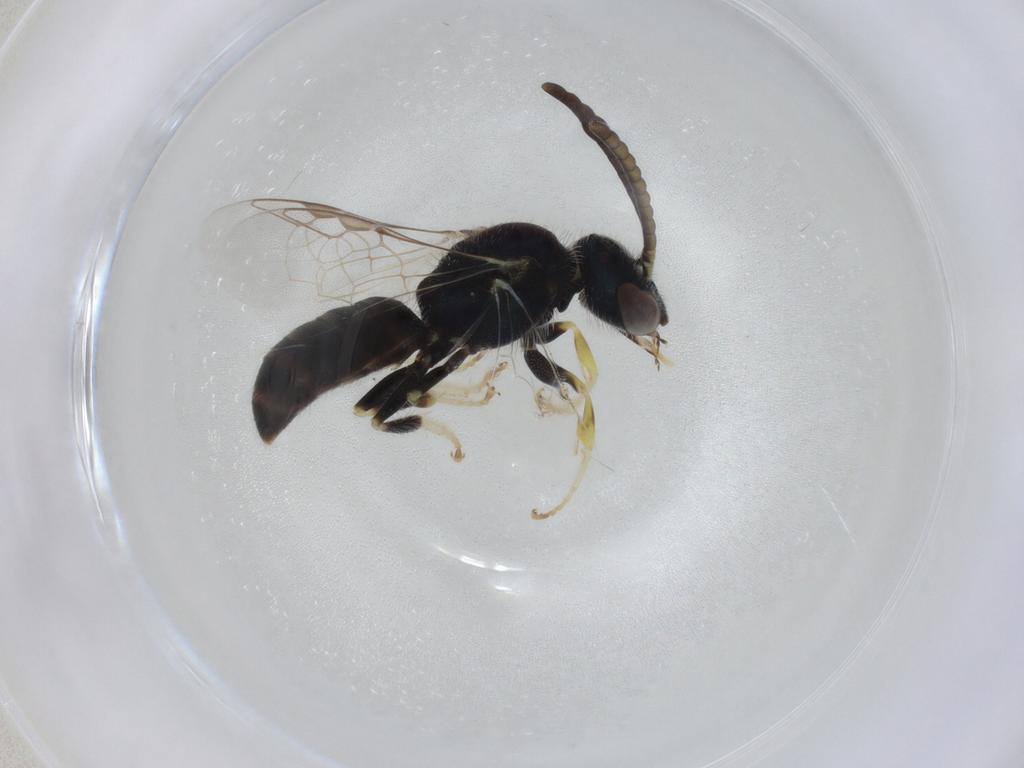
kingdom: Animalia
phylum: Arthropoda
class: Insecta
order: Hemiptera
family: Miridae
